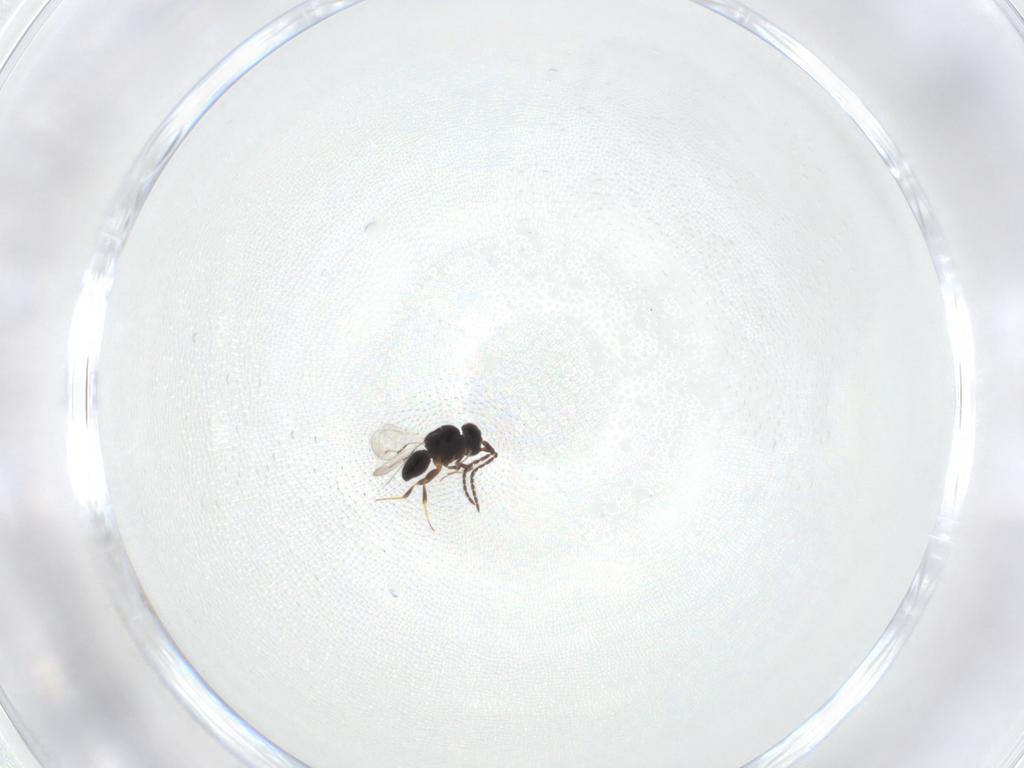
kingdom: Animalia
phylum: Arthropoda
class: Insecta
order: Hymenoptera
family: Ceraphronidae
